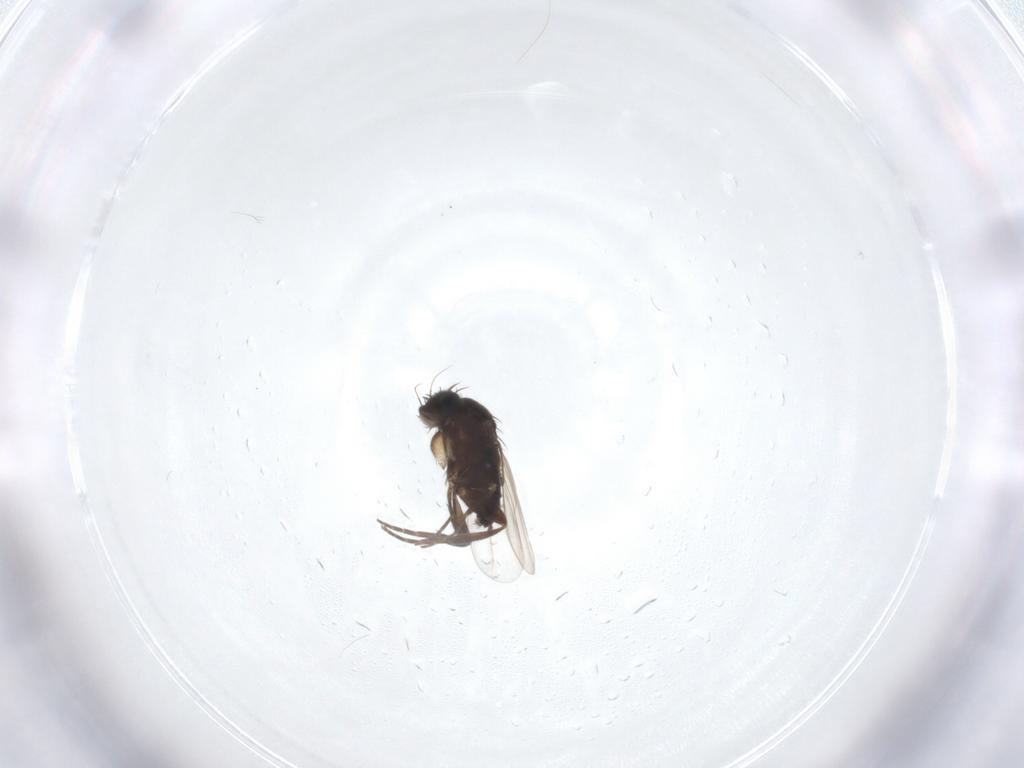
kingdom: Animalia
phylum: Arthropoda
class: Insecta
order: Diptera
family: Phoridae
